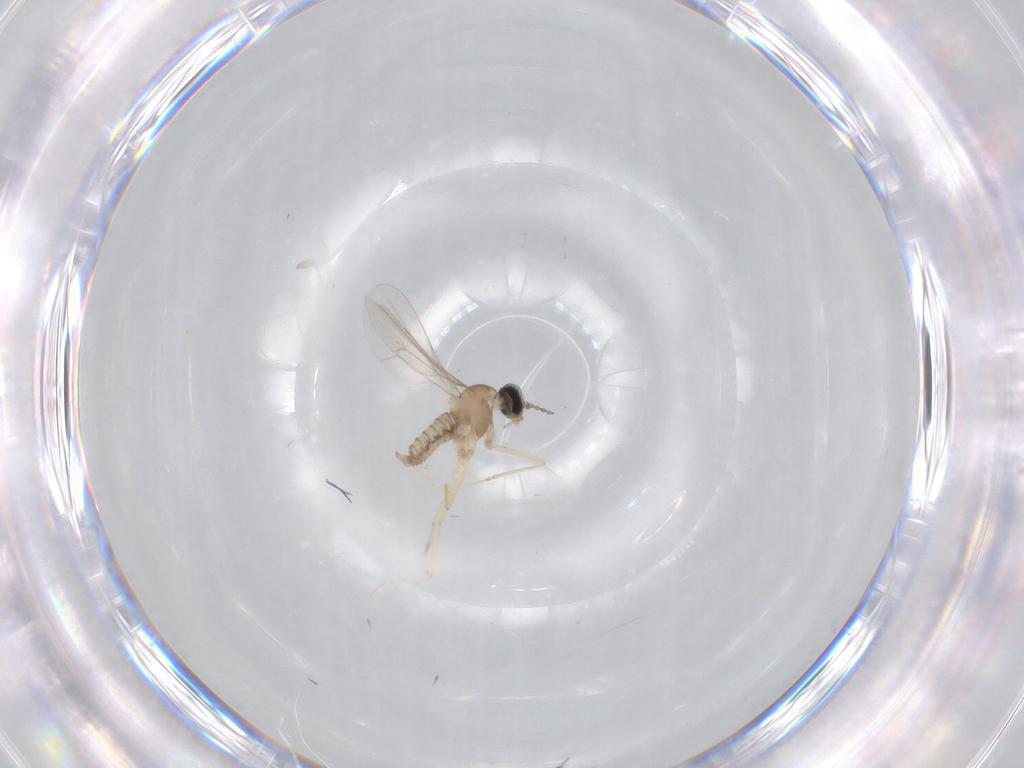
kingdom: Animalia
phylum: Arthropoda
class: Insecta
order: Diptera
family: Cecidomyiidae
